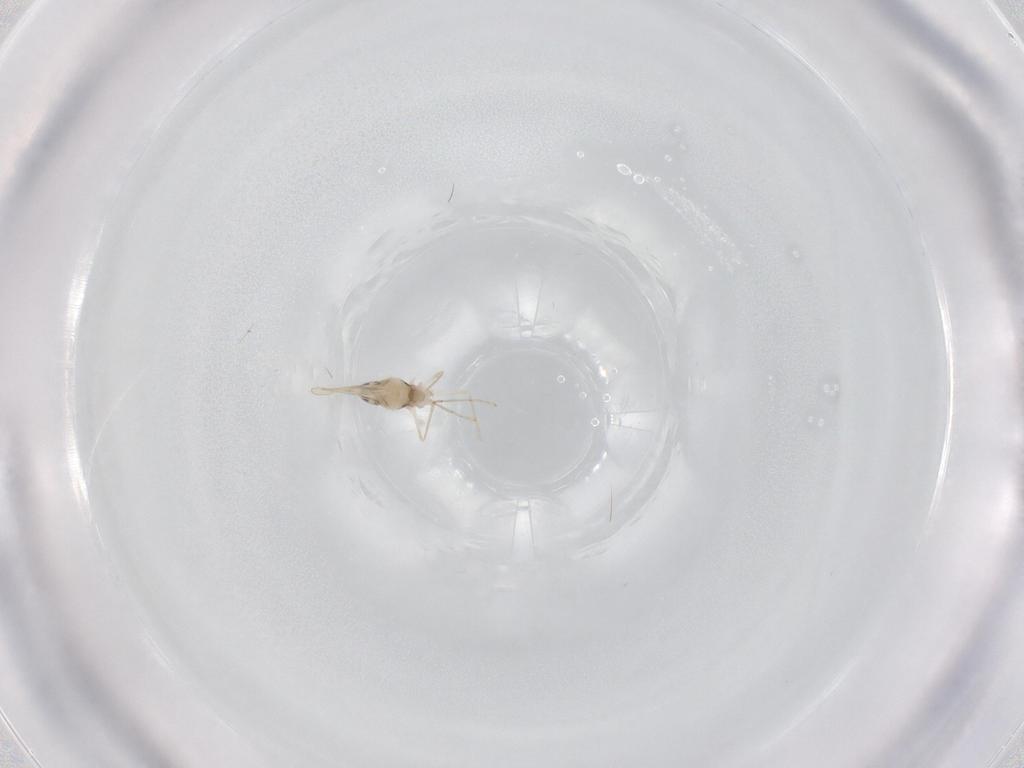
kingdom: Animalia
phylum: Arthropoda
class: Insecta
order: Diptera
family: Cecidomyiidae
